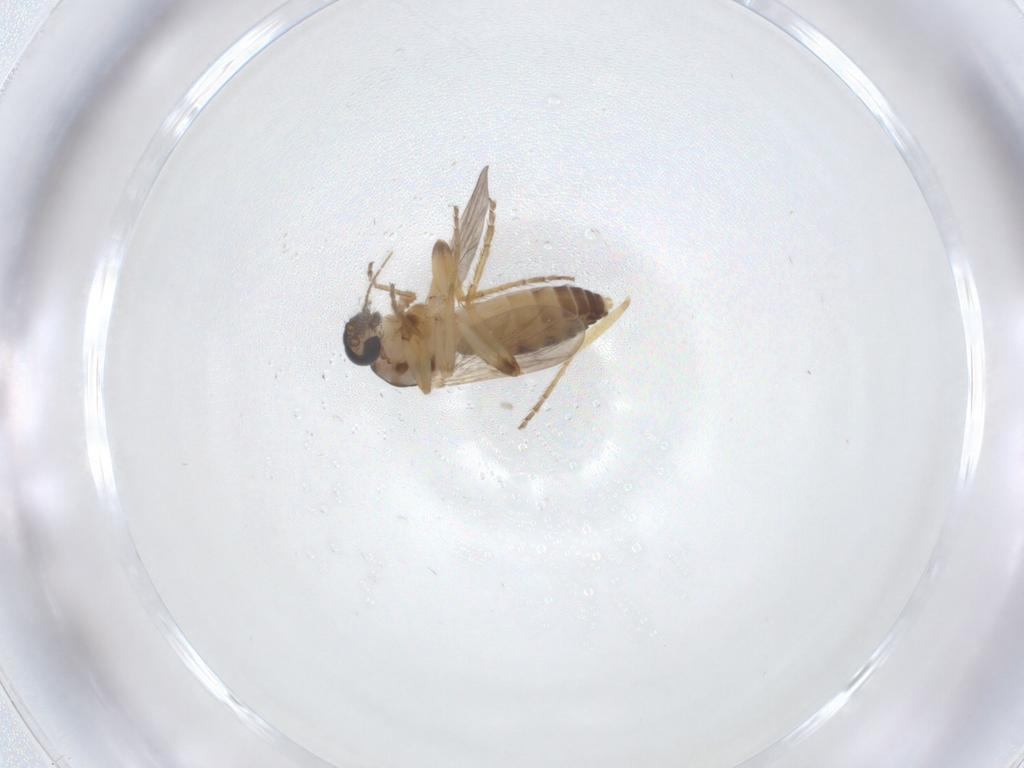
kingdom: Animalia
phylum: Arthropoda
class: Insecta
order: Diptera
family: Ceratopogonidae
